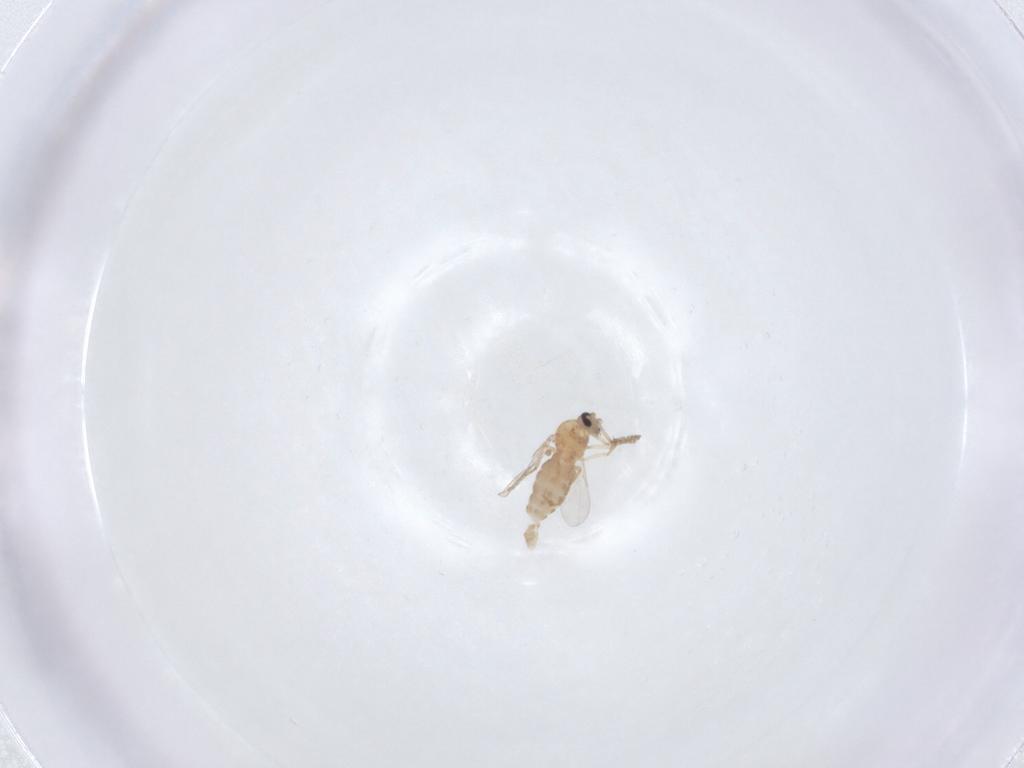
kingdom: Animalia
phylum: Arthropoda
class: Insecta
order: Diptera
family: Ceratopogonidae
